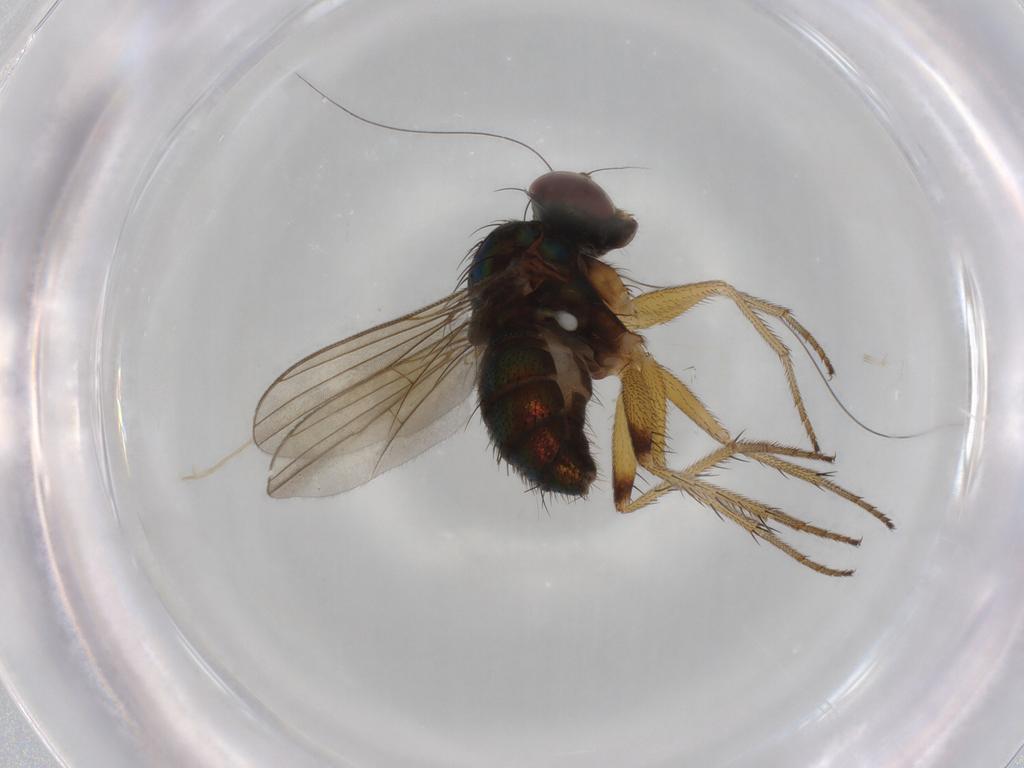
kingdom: Animalia
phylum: Arthropoda
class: Insecta
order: Diptera
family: Dolichopodidae
